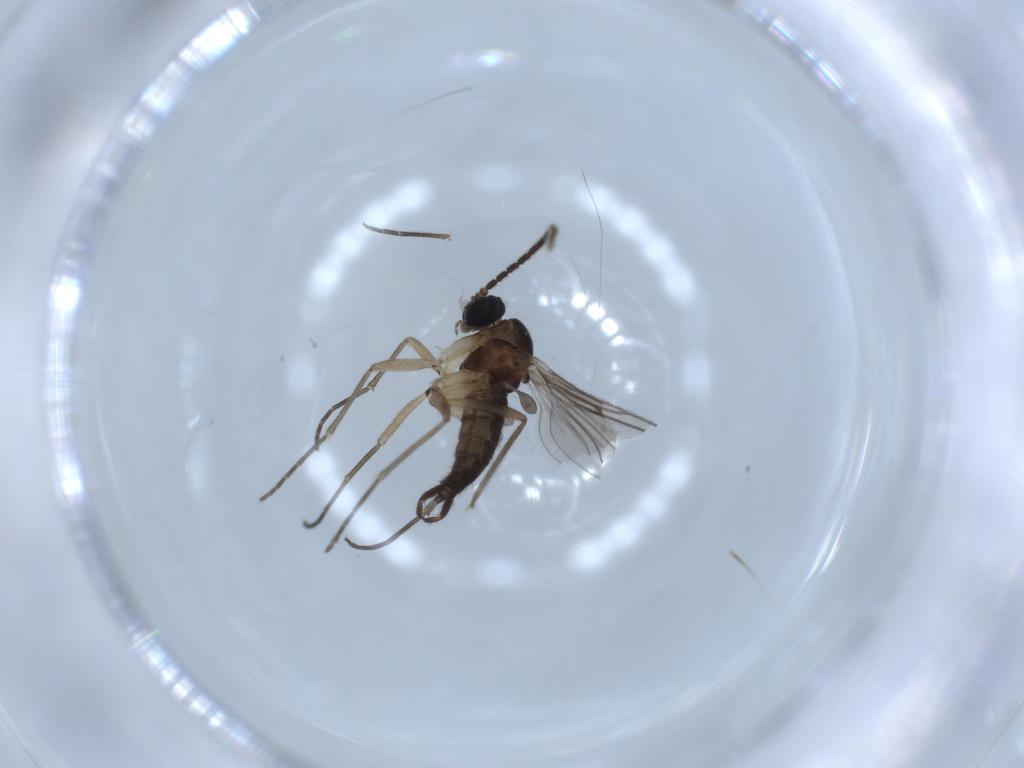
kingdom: Animalia
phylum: Arthropoda
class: Insecta
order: Diptera
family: Sciaridae
